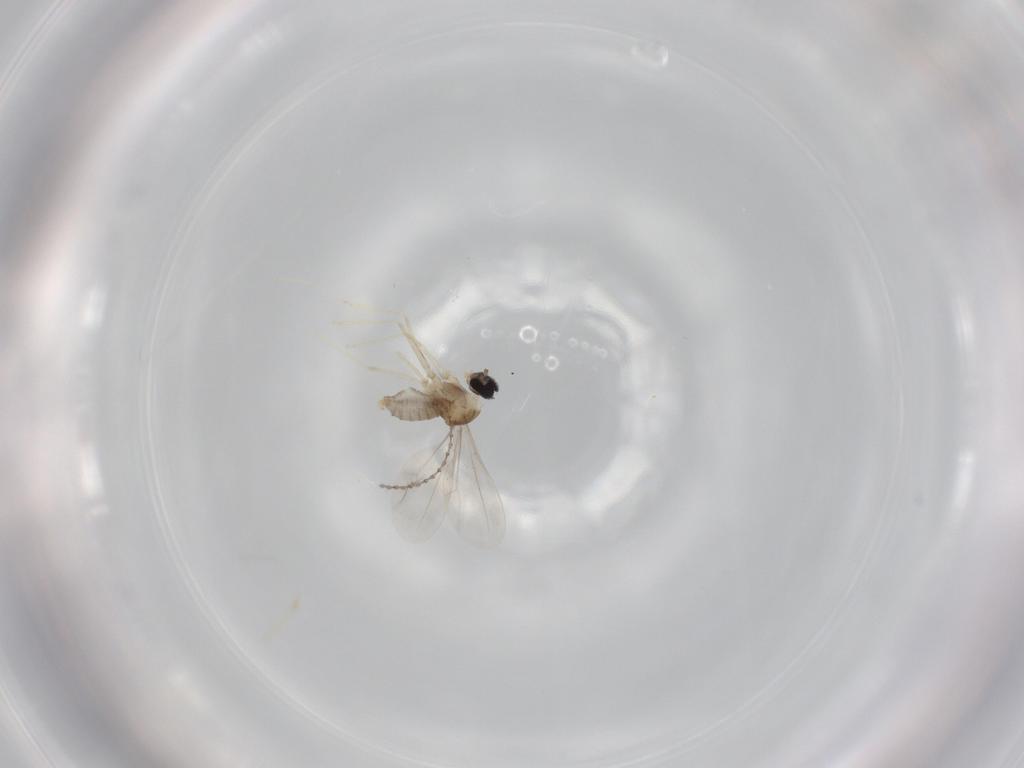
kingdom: Animalia
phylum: Arthropoda
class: Insecta
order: Diptera
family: Cecidomyiidae
